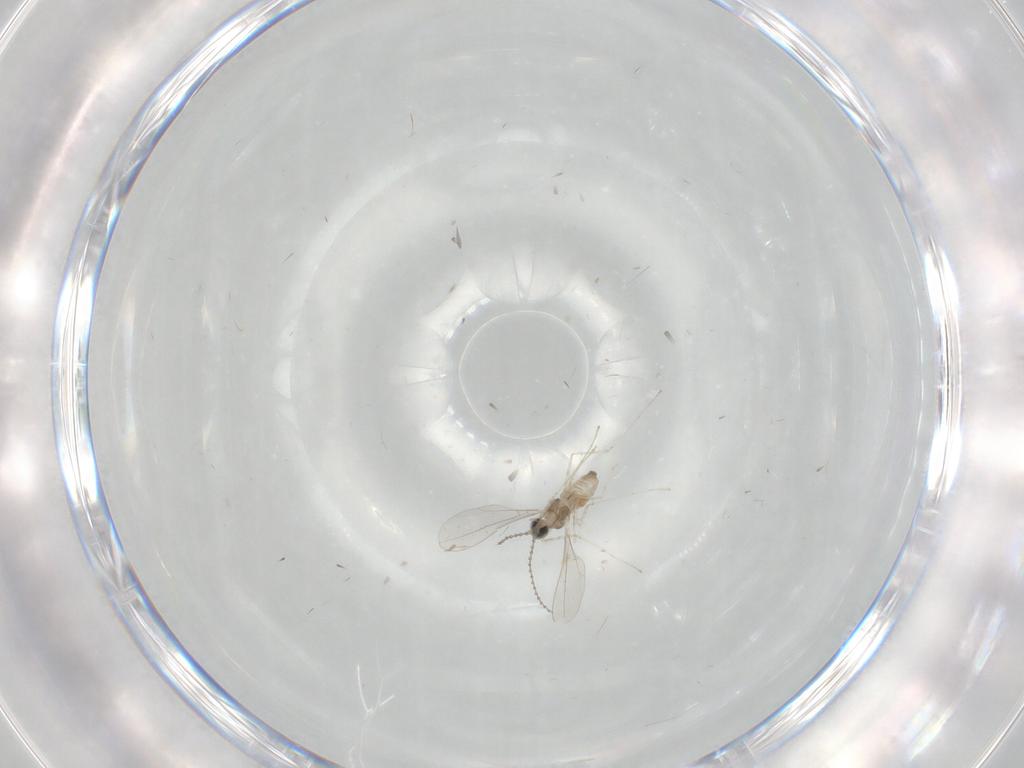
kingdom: Animalia
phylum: Arthropoda
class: Insecta
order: Diptera
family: Cecidomyiidae
